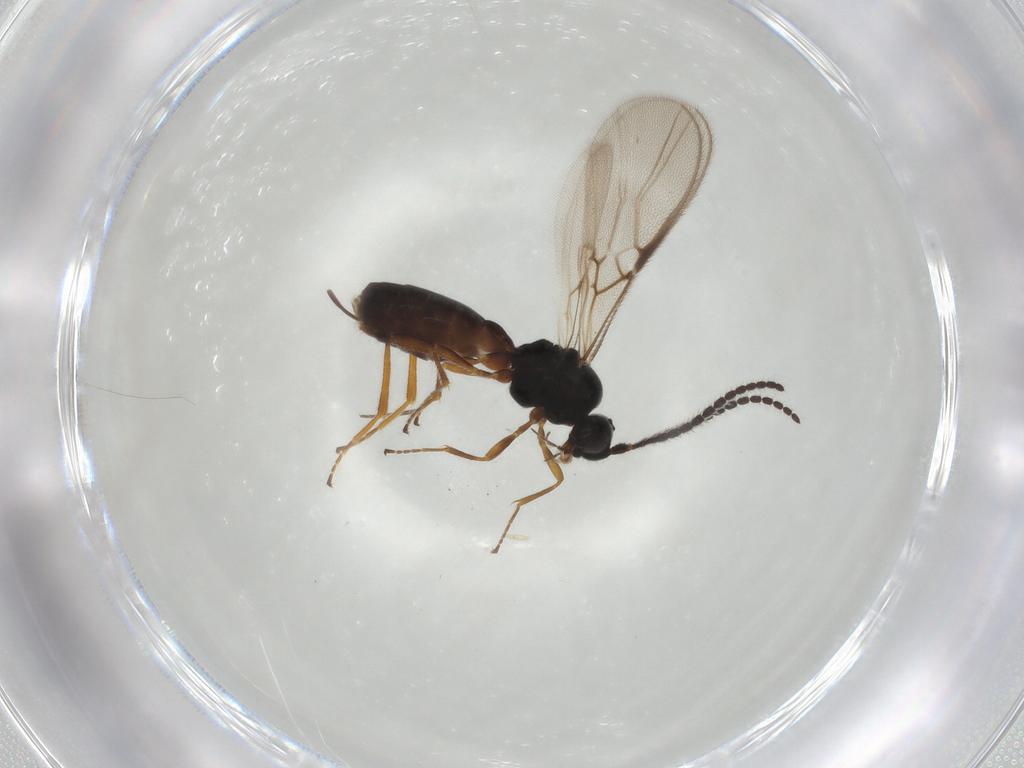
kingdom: Animalia
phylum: Arthropoda
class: Insecta
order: Hymenoptera
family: Braconidae
